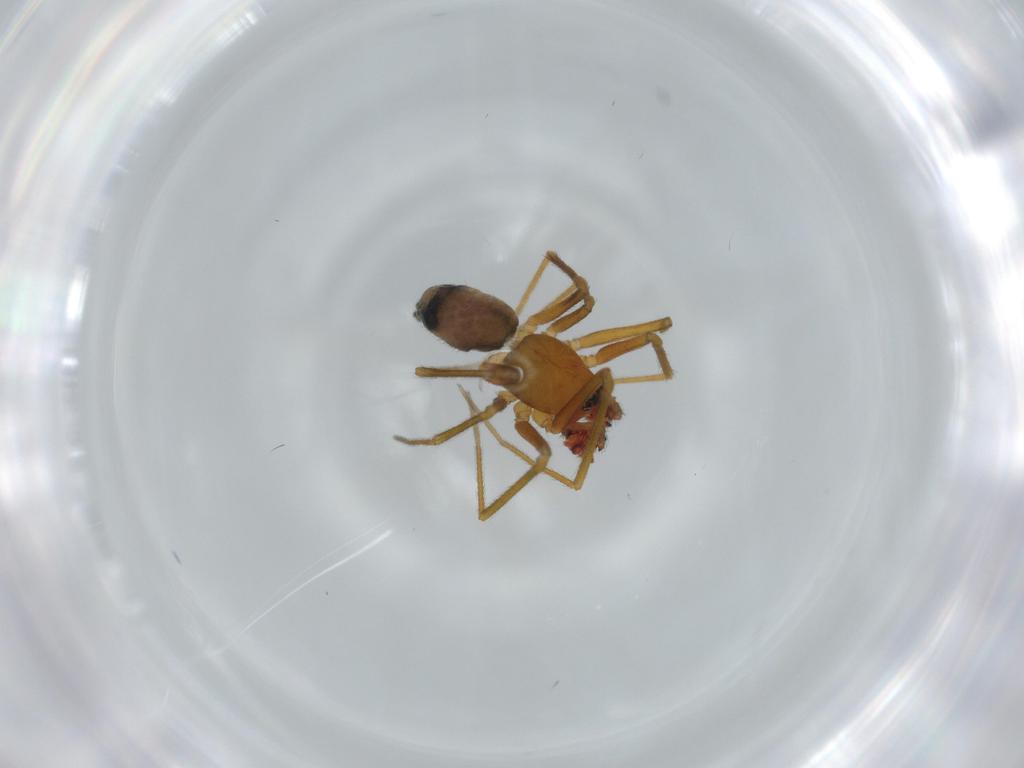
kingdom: Animalia
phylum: Arthropoda
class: Arachnida
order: Araneae
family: Linyphiidae
